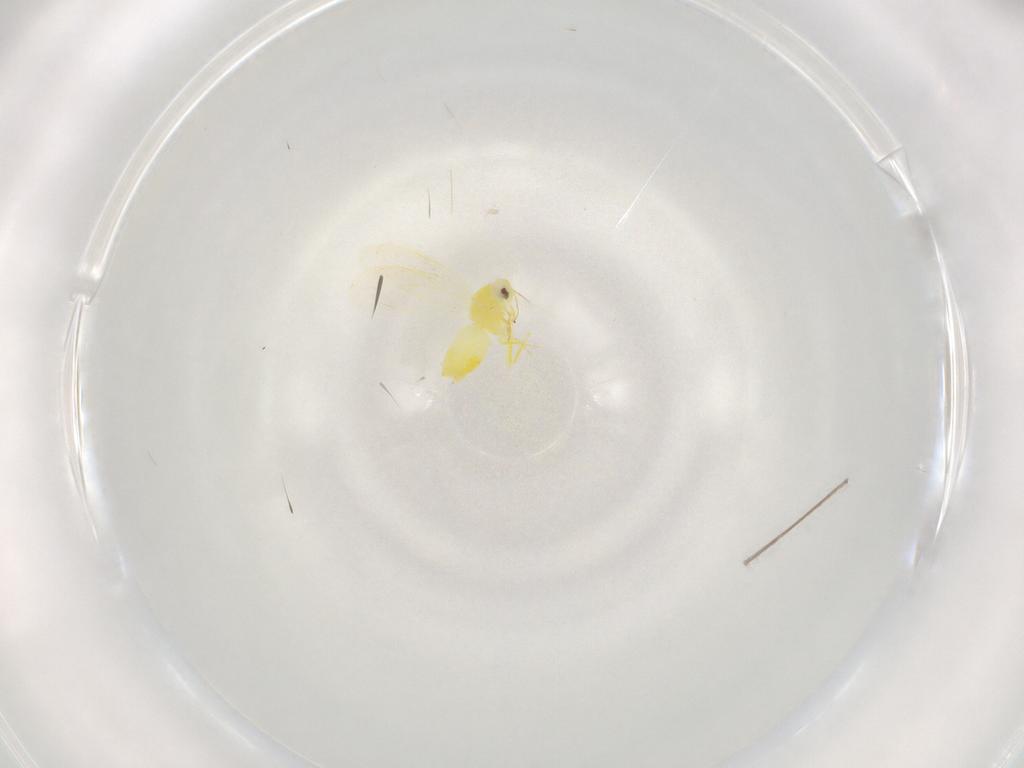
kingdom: Animalia
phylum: Arthropoda
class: Insecta
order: Hemiptera
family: Aleyrodidae
